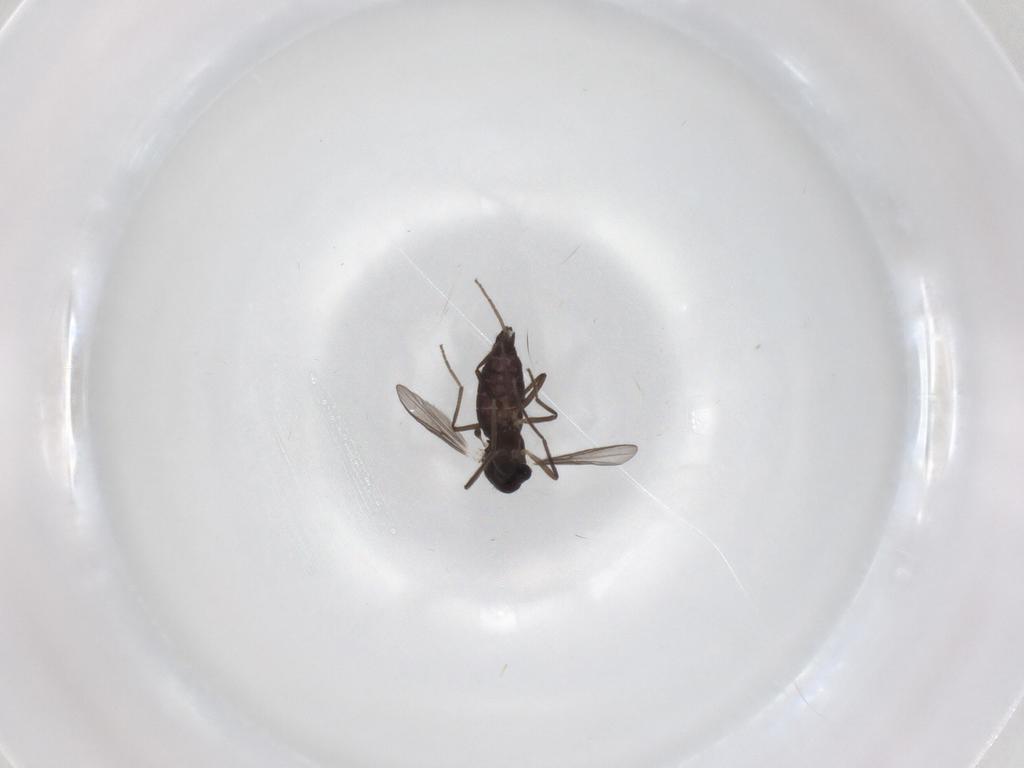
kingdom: Animalia
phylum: Arthropoda
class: Insecta
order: Diptera
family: Chironomidae
